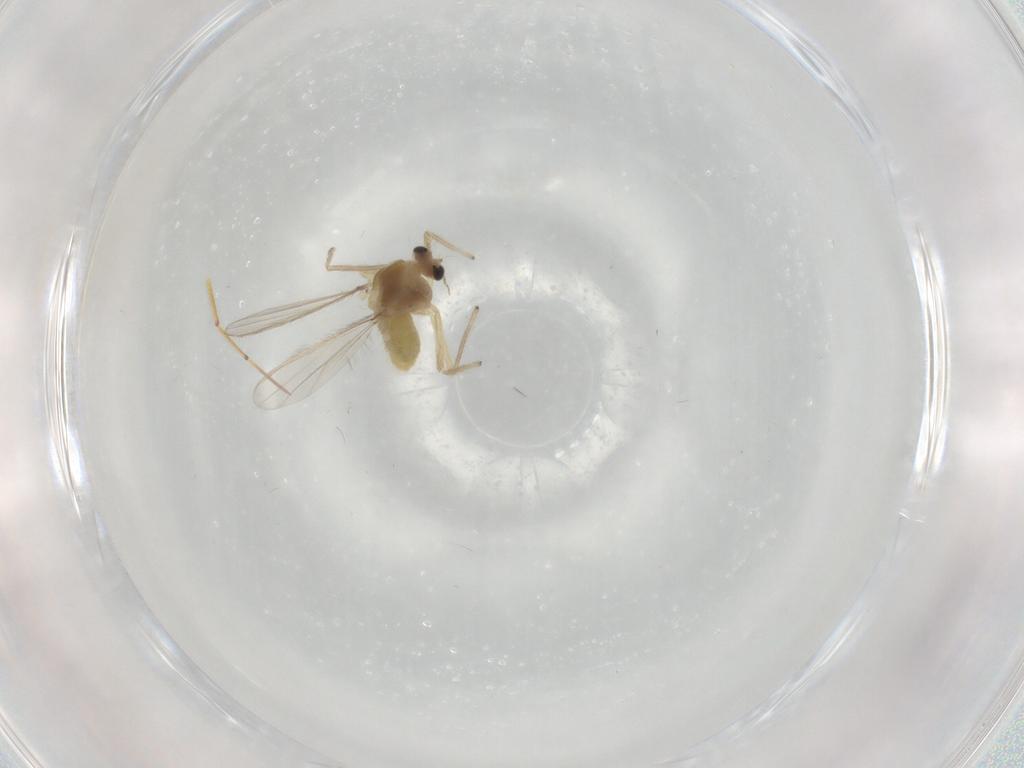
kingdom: Animalia
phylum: Arthropoda
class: Insecta
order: Diptera
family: Chironomidae
